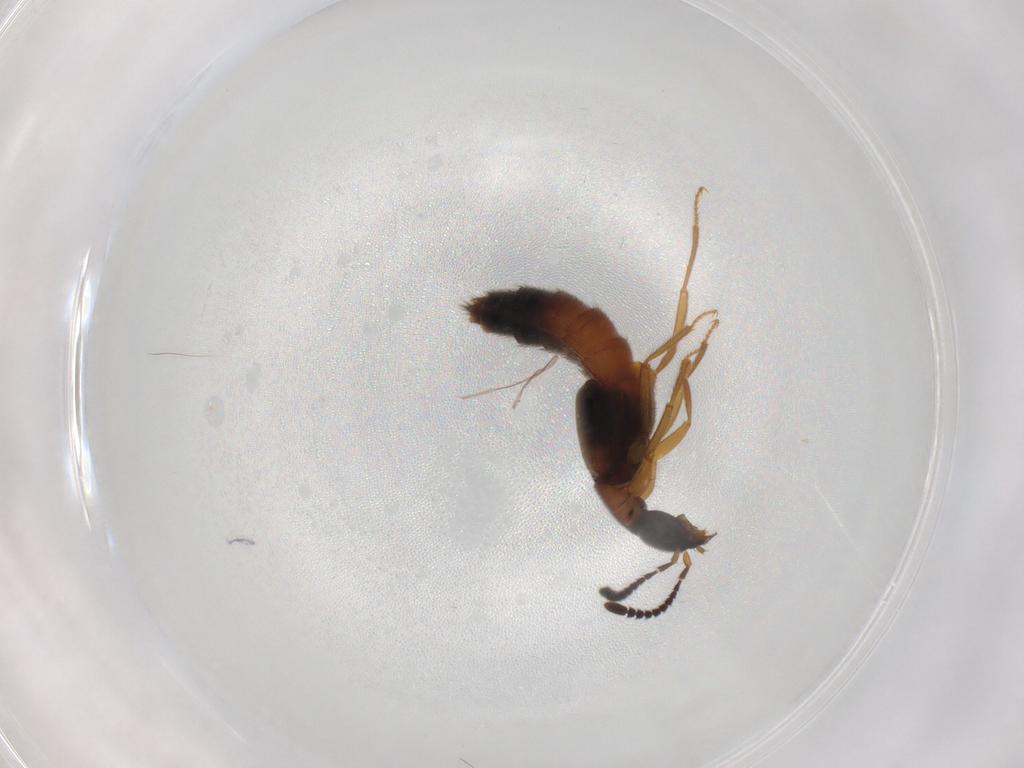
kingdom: Animalia
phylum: Arthropoda
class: Insecta
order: Coleoptera
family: Staphylinidae
